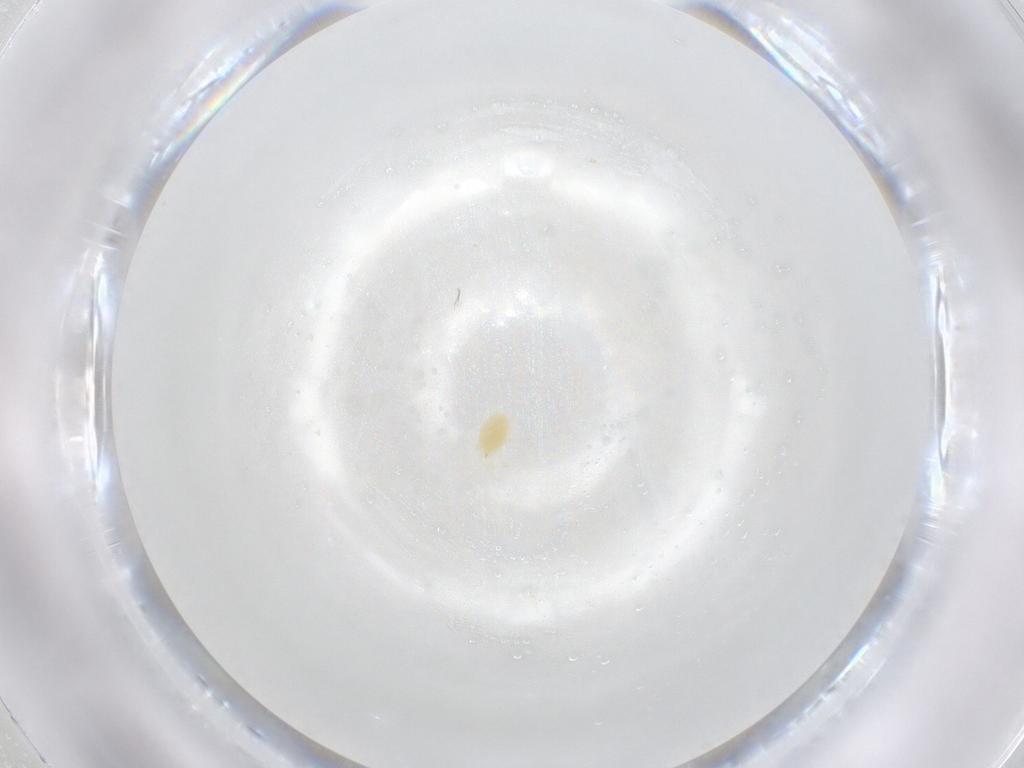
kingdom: Animalia
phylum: Arthropoda
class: Arachnida
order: Trombidiformes
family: Tetranychidae
